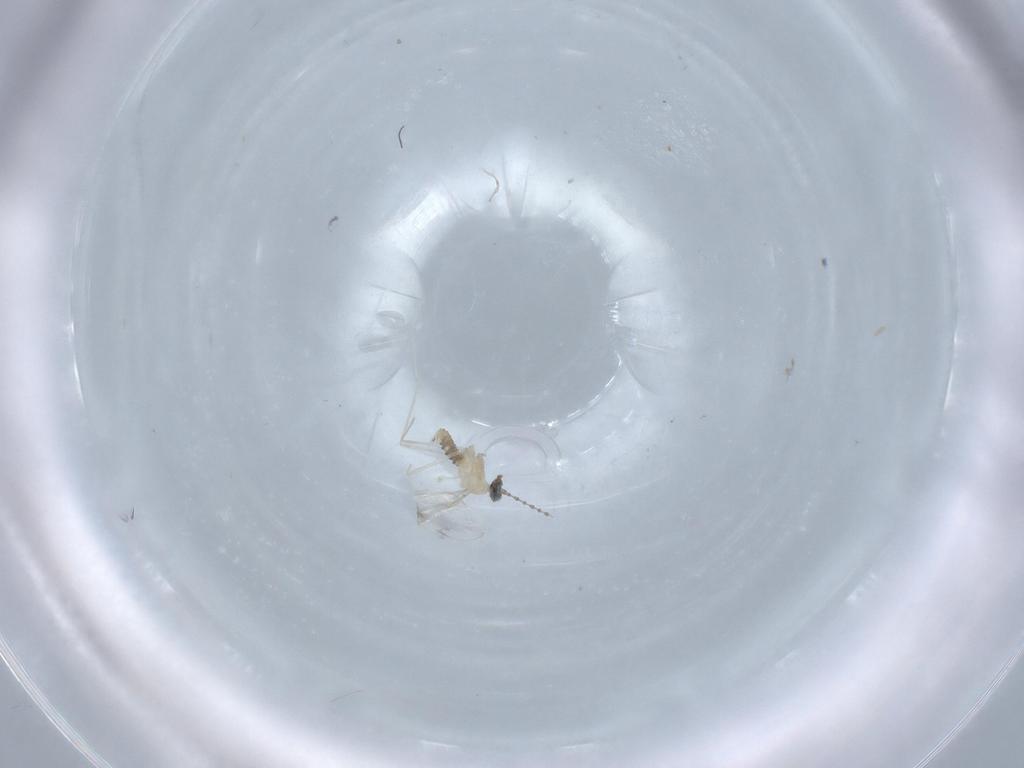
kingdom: Animalia
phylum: Arthropoda
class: Insecta
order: Diptera
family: Cecidomyiidae
